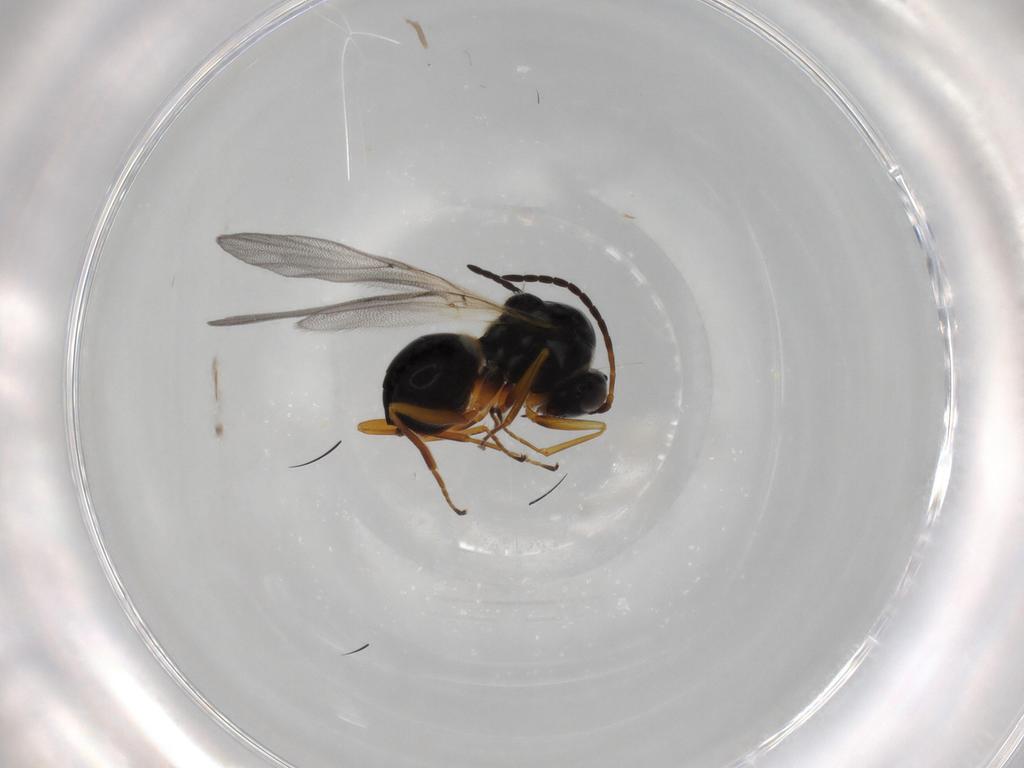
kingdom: Animalia
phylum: Arthropoda
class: Insecta
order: Hymenoptera
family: Figitidae
